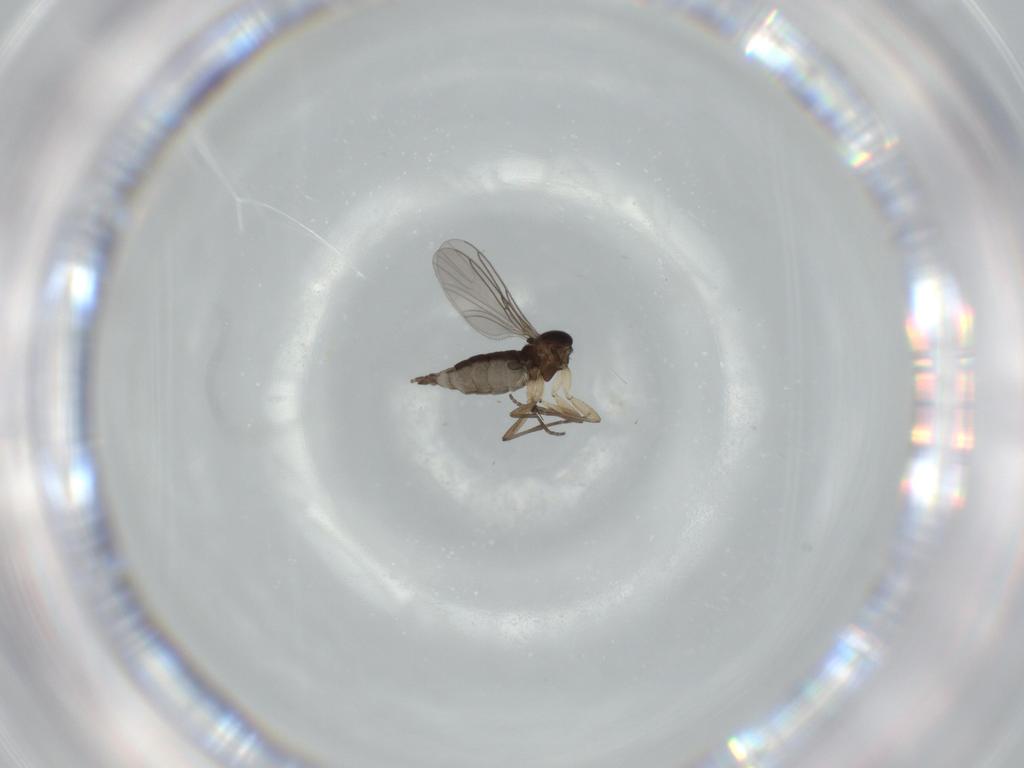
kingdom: Animalia
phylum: Arthropoda
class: Insecta
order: Diptera
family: Sciaridae
